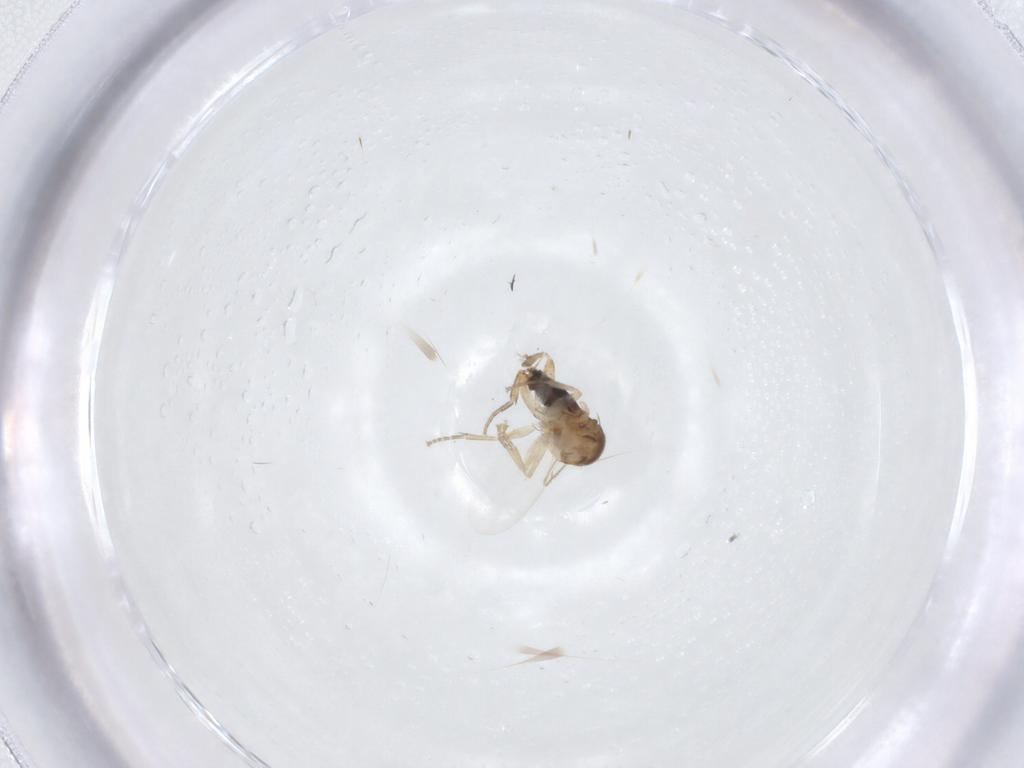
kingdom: Animalia
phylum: Arthropoda
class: Insecta
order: Diptera
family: Phoridae
